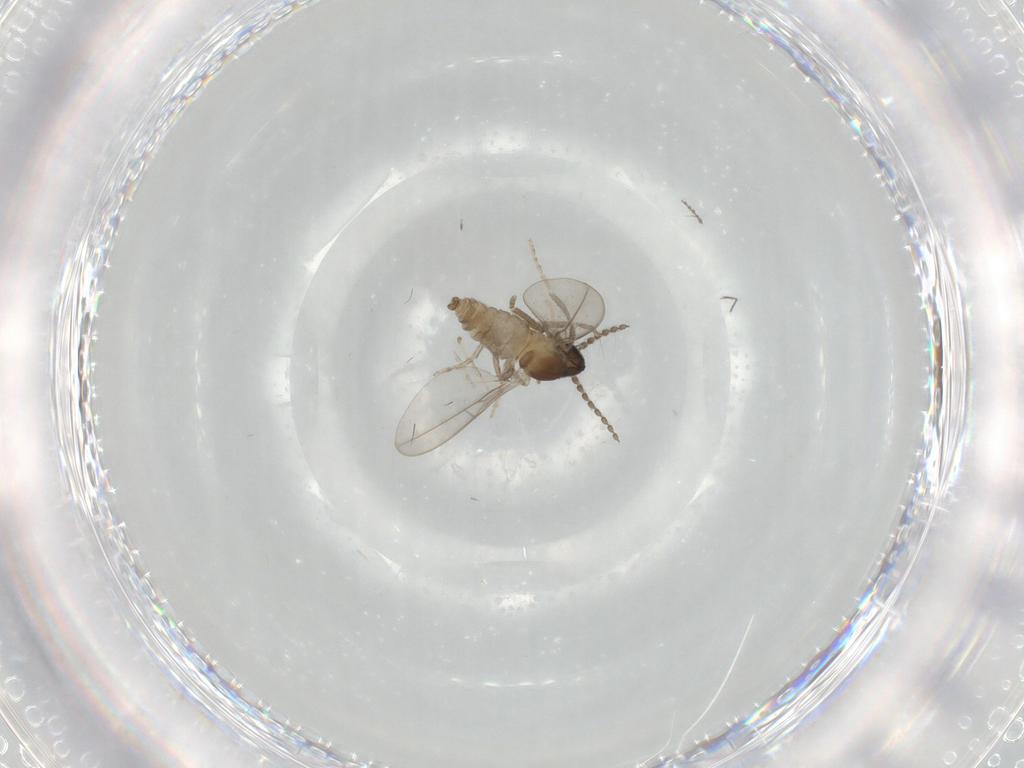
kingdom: Animalia
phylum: Arthropoda
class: Insecta
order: Diptera
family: Cecidomyiidae
